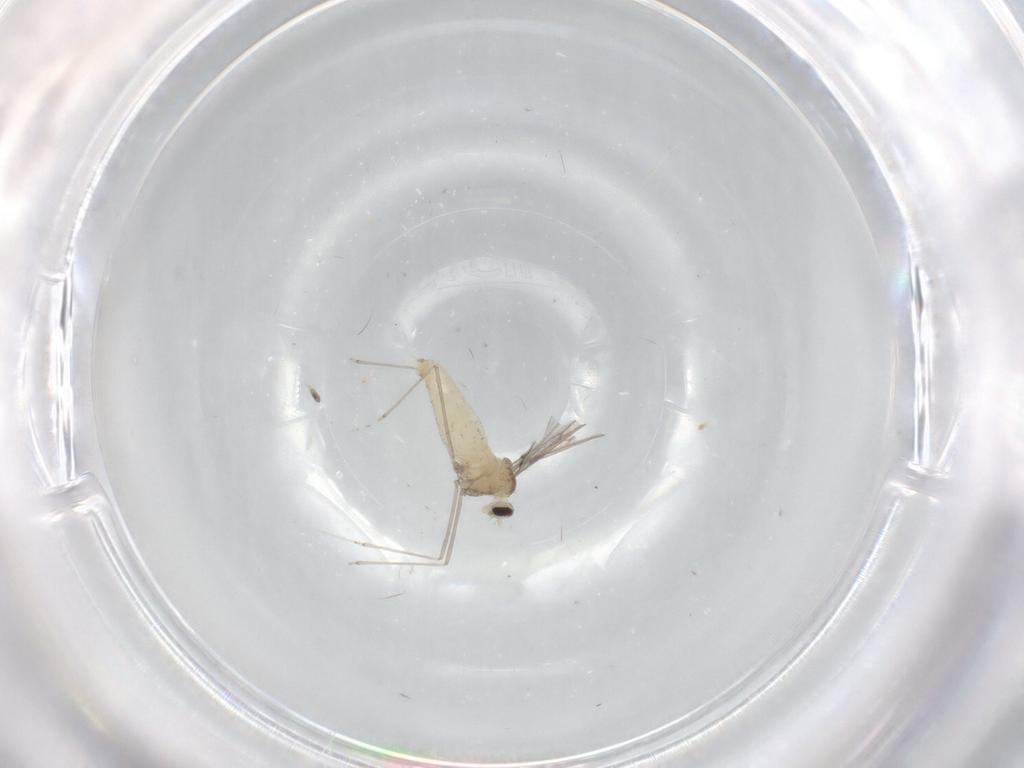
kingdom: Animalia
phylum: Arthropoda
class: Insecta
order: Diptera
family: Cecidomyiidae
